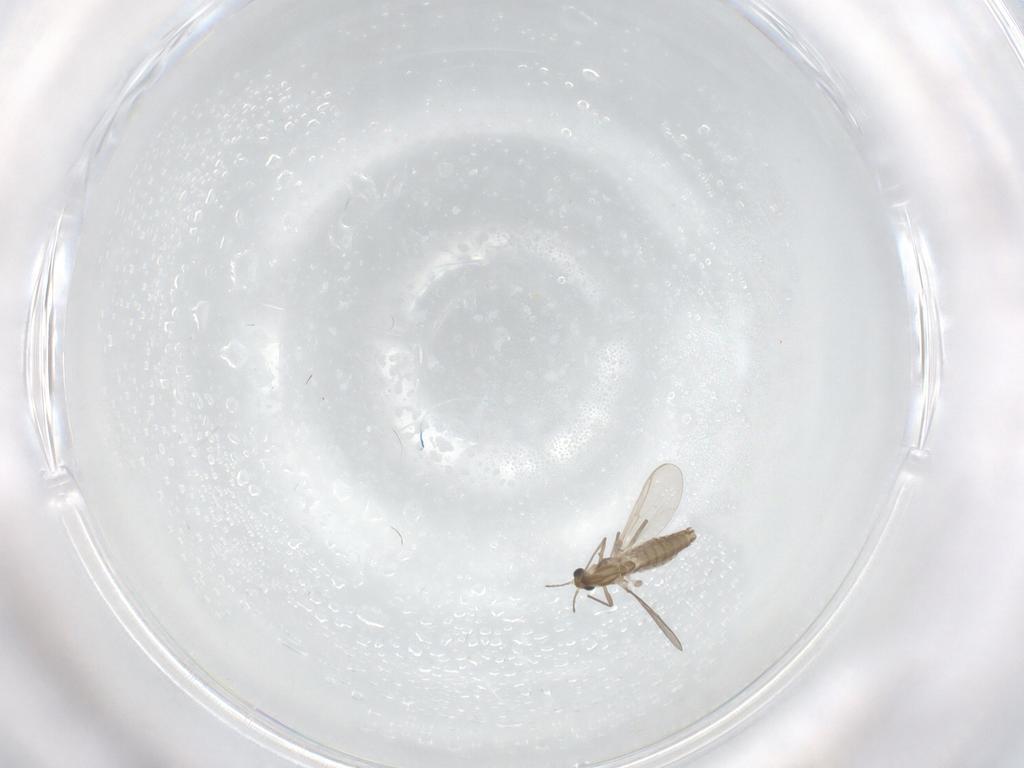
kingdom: Animalia
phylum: Arthropoda
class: Insecta
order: Diptera
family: Chironomidae
